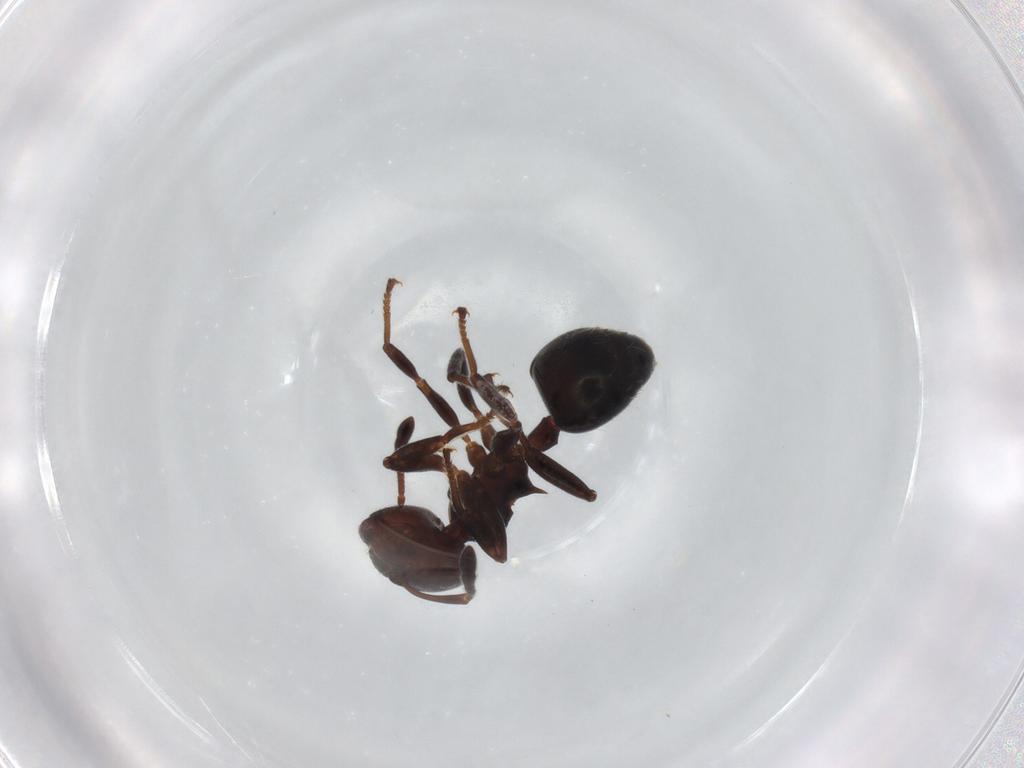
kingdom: Animalia
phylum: Arthropoda
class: Insecta
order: Hymenoptera
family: Formicidae
